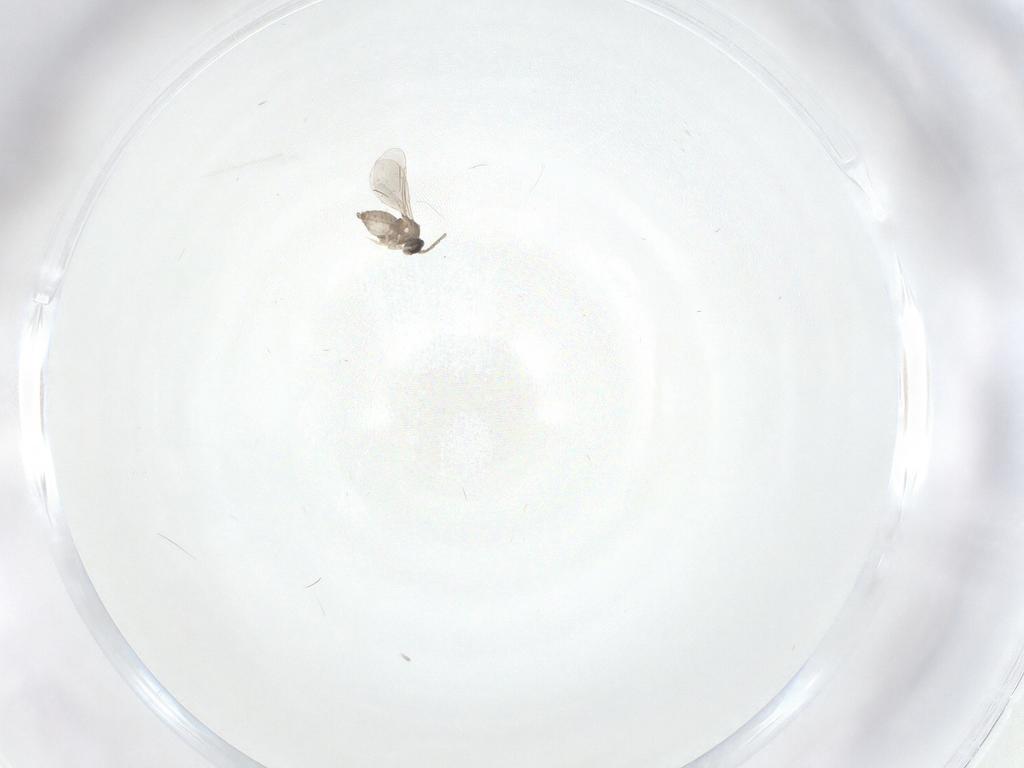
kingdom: Animalia
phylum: Arthropoda
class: Insecta
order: Diptera
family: Cecidomyiidae
